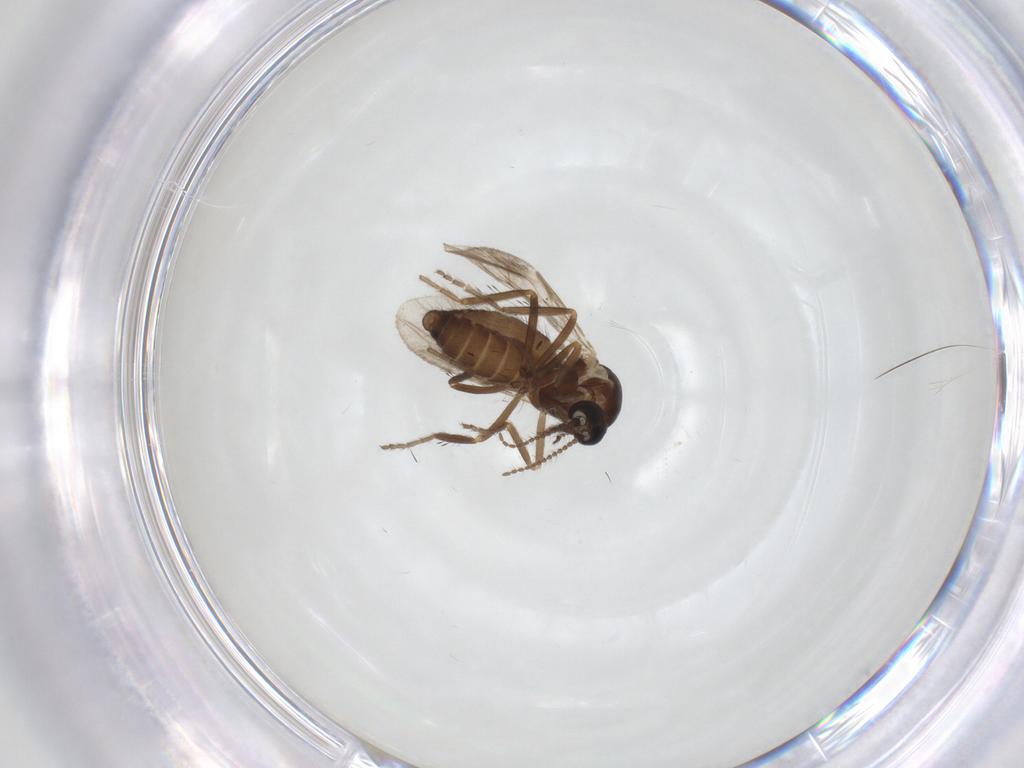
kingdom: Animalia
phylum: Arthropoda
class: Insecta
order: Diptera
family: Ceratopogonidae
